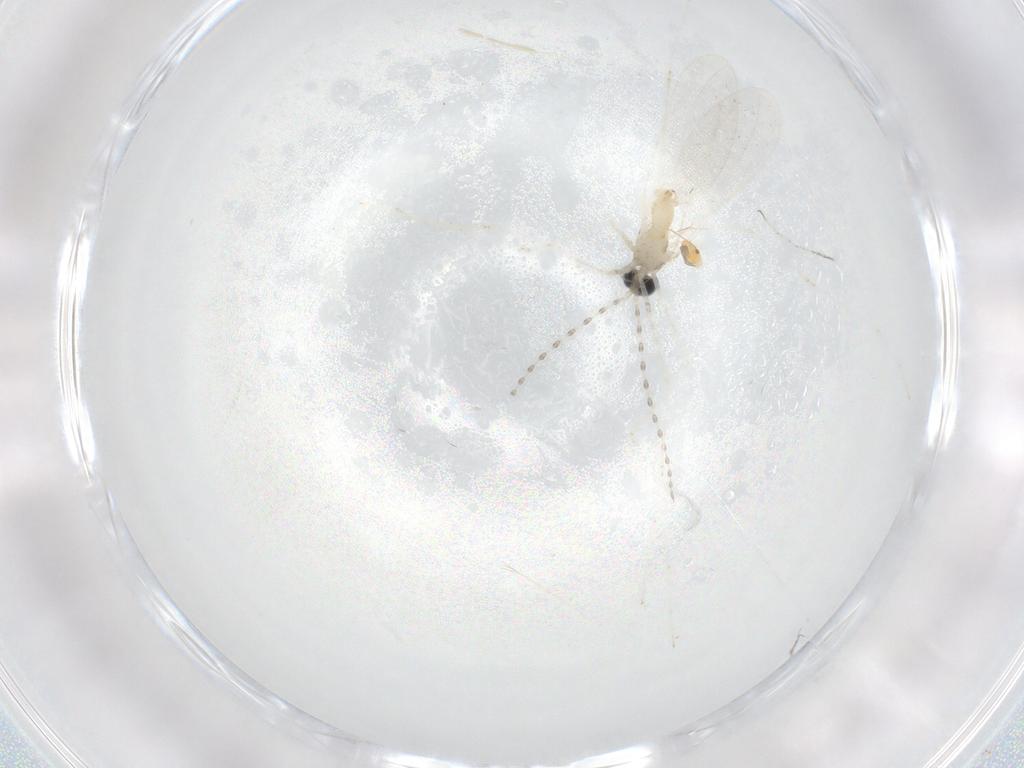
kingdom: Animalia
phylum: Arthropoda
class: Insecta
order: Diptera
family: Cecidomyiidae
